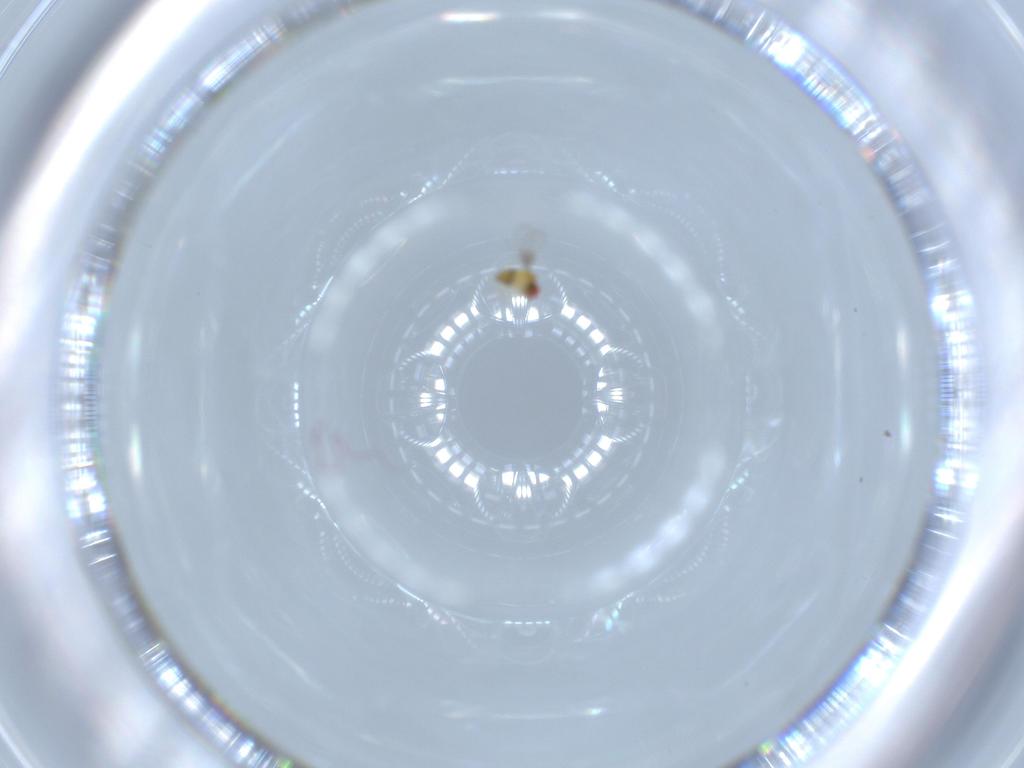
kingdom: Animalia
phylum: Arthropoda
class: Insecta
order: Hymenoptera
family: Trichogrammatidae
